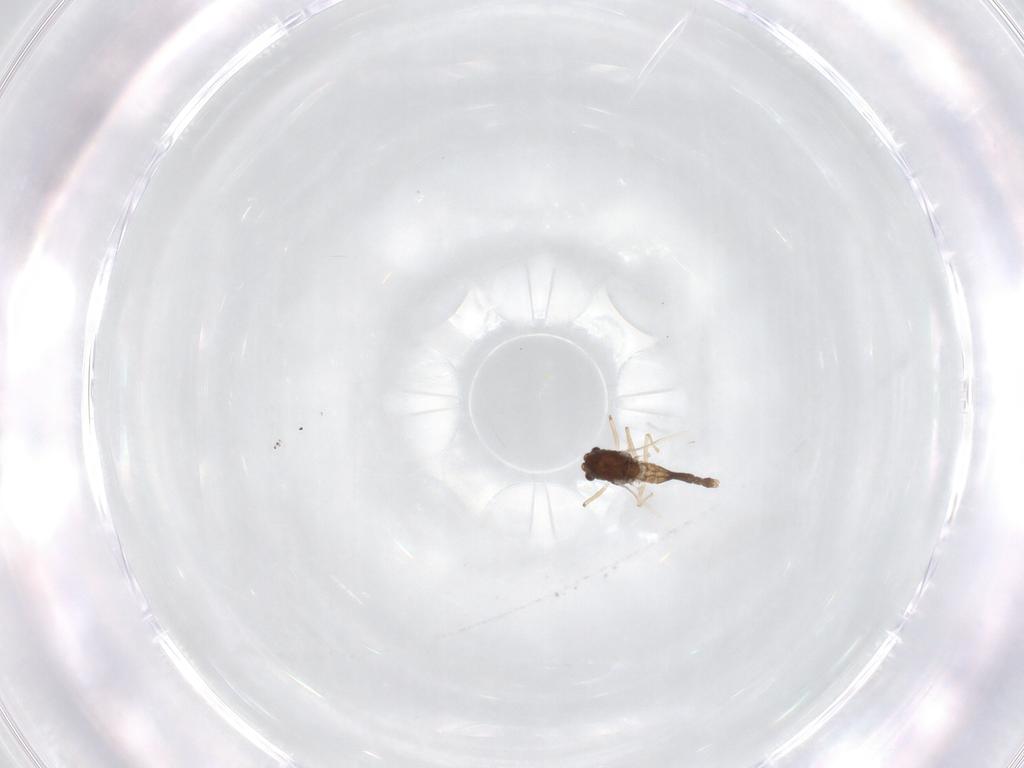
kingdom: Animalia
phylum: Arthropoda
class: Insecta
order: Diptera
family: Chironomidae
